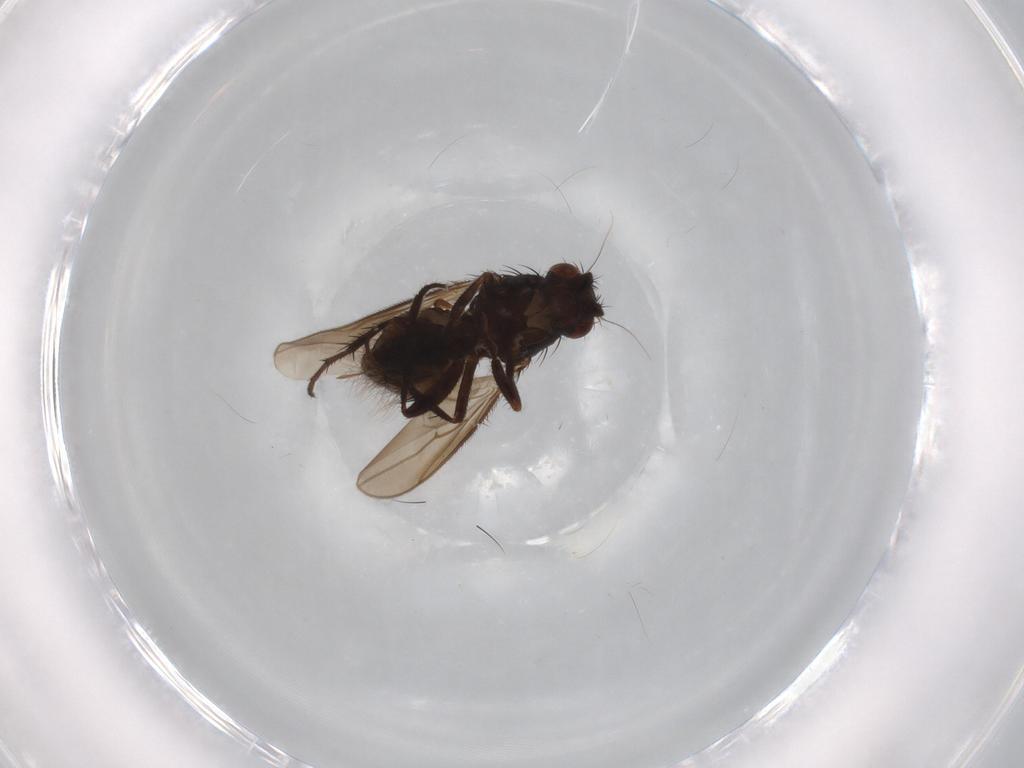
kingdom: Animalia
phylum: Arthropoda
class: Insecta
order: Diptera
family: Sphaeroceridae
